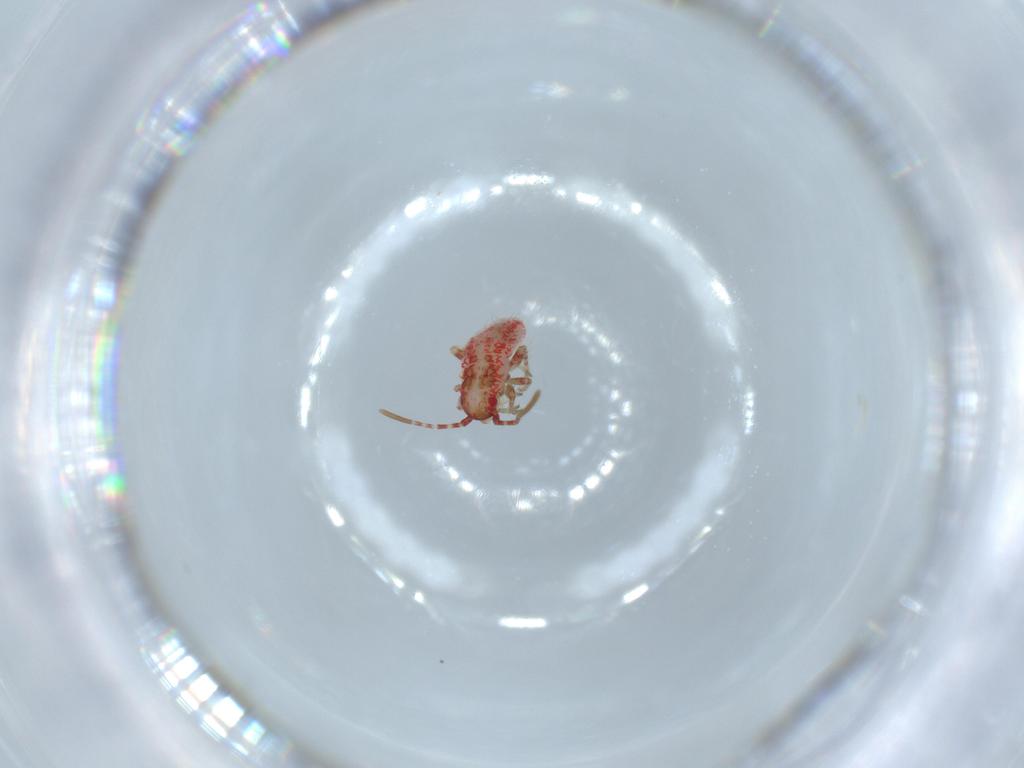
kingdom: Animalia
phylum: Arthropoda
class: Insecta
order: Hemiptera
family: Miridae
